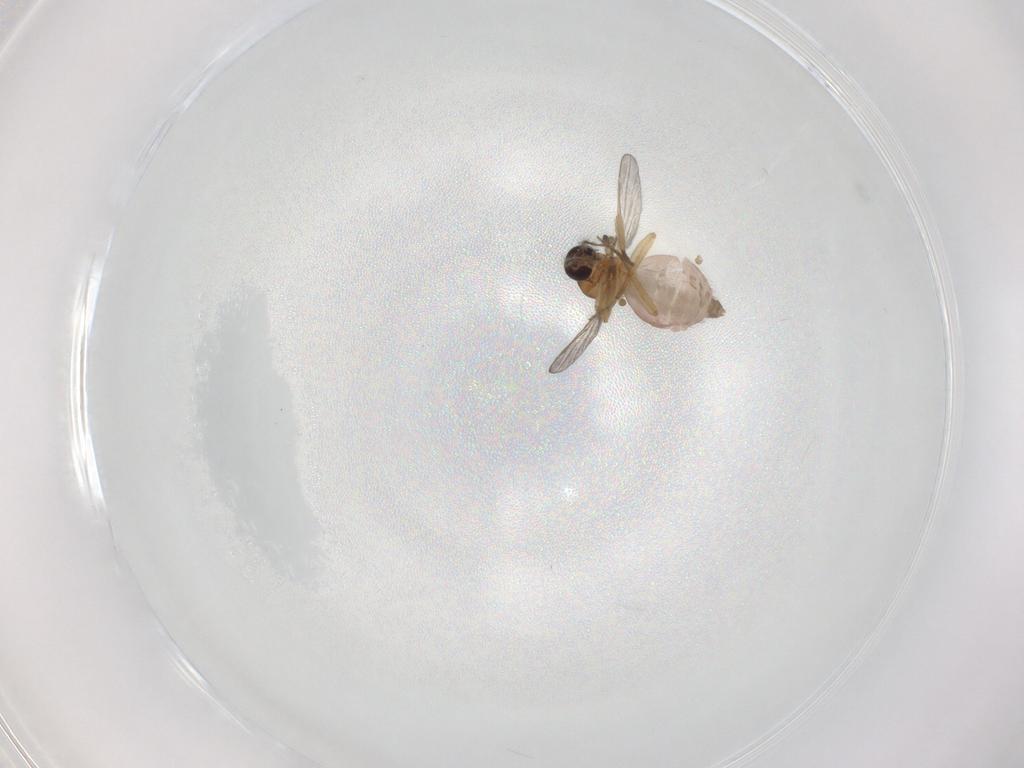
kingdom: Animalia
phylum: Arthropoda
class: Insecta
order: Diptera
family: Ceratopogonidae
